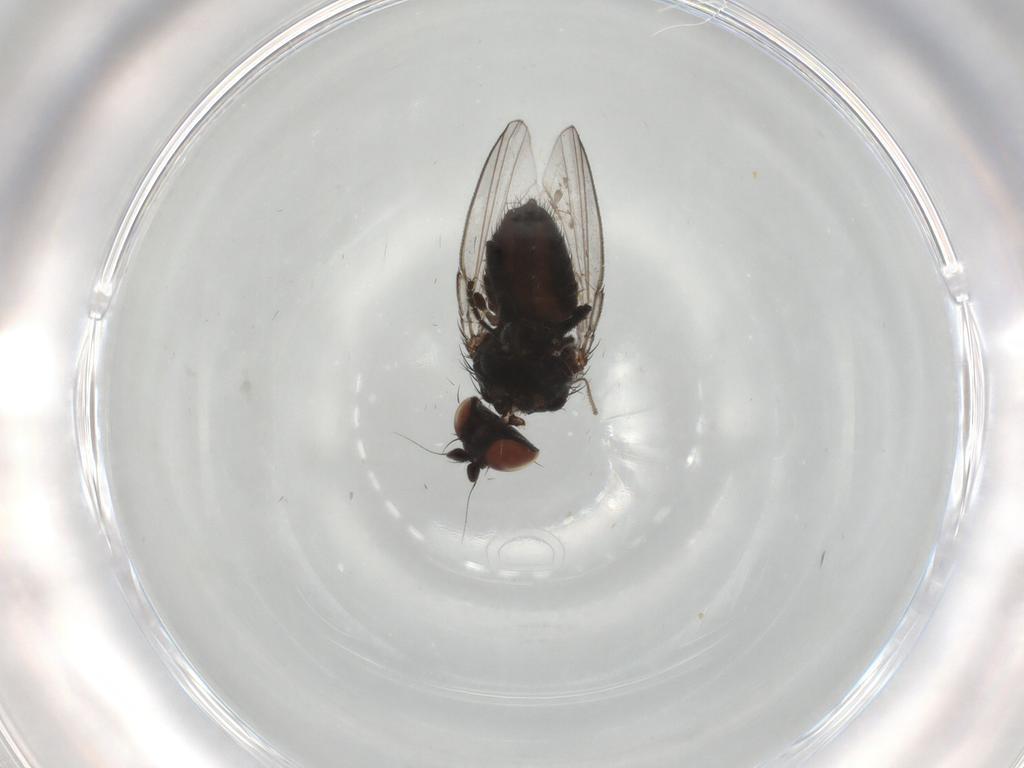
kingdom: Animalia
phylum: Arthropoda
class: Insecta
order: Diptera
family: Milichiidae
